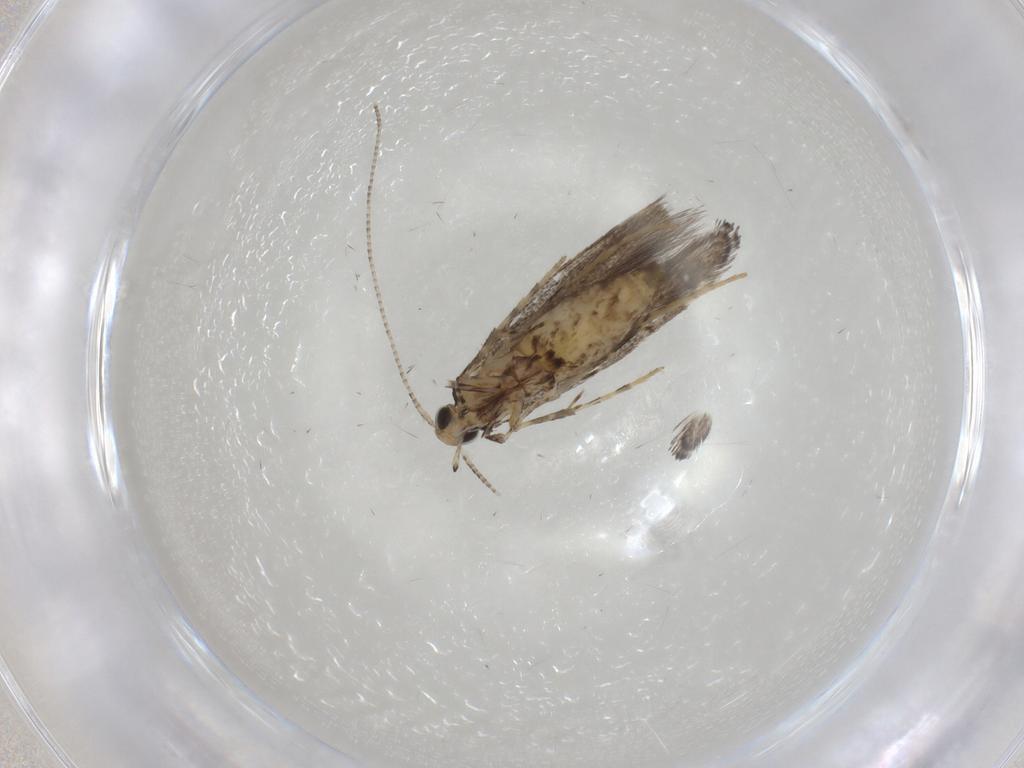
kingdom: Animalia
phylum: Arthropoda
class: Insecta
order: Lepidoptera
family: Gracillariidae
